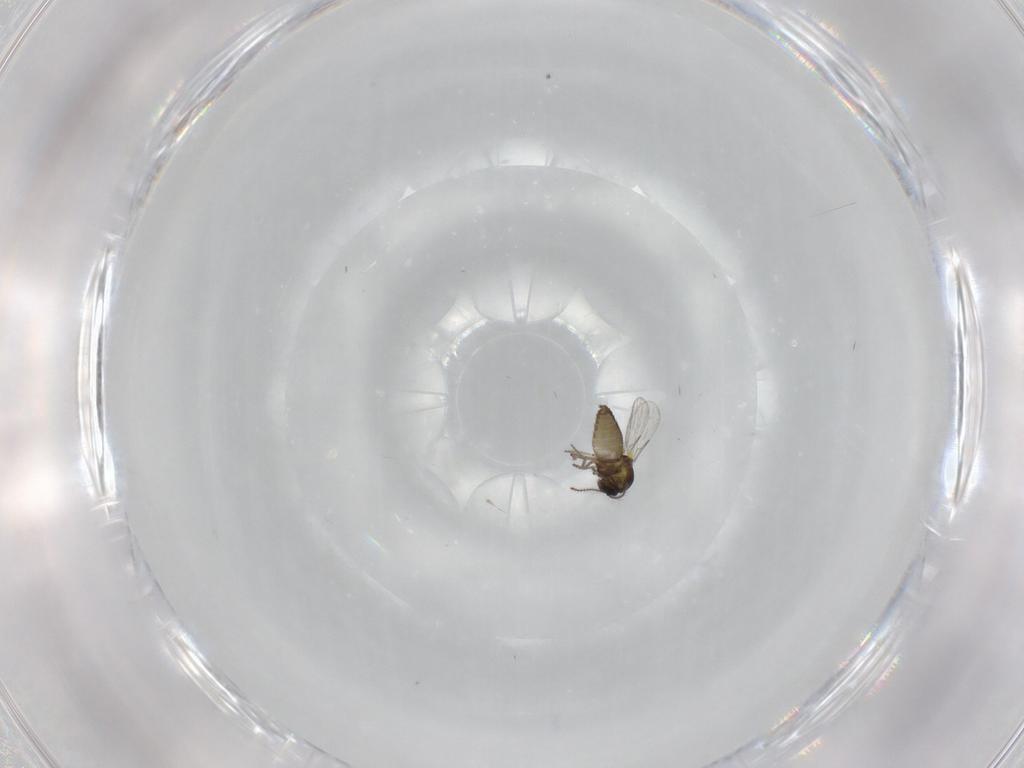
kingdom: Animalia
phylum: Arthropoda
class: Insecta
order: Diptera
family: Ceratopogonidae
